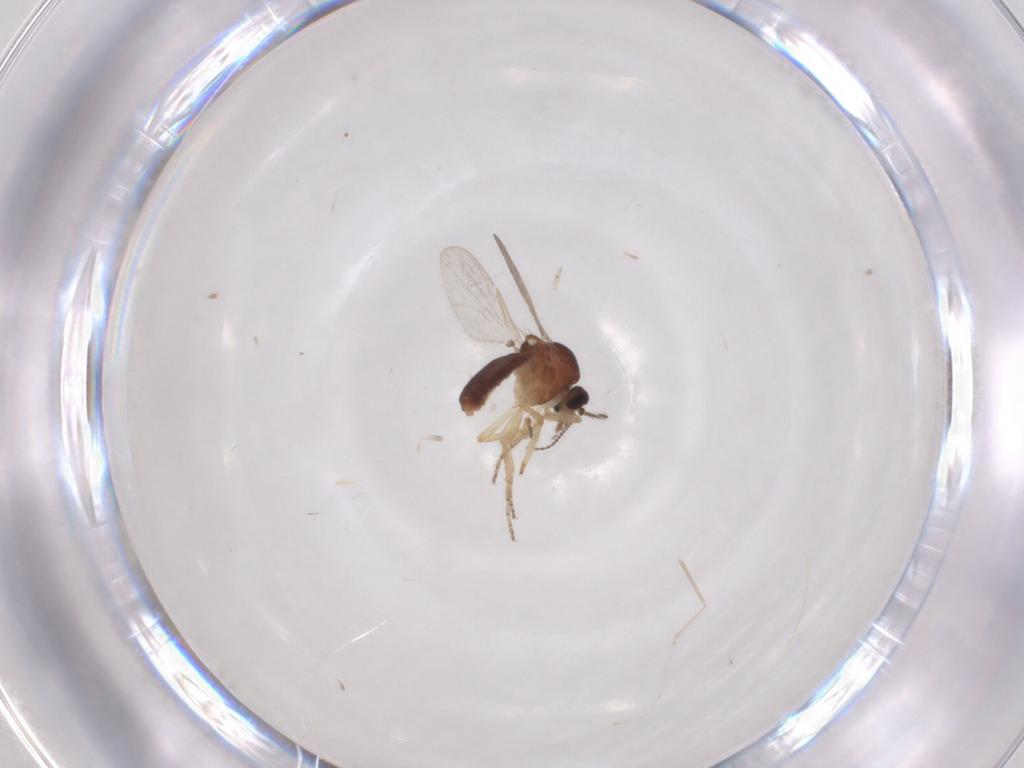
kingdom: Animalia
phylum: Arthropoda
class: Insecta
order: Diptera
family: Ceratopogonidae
